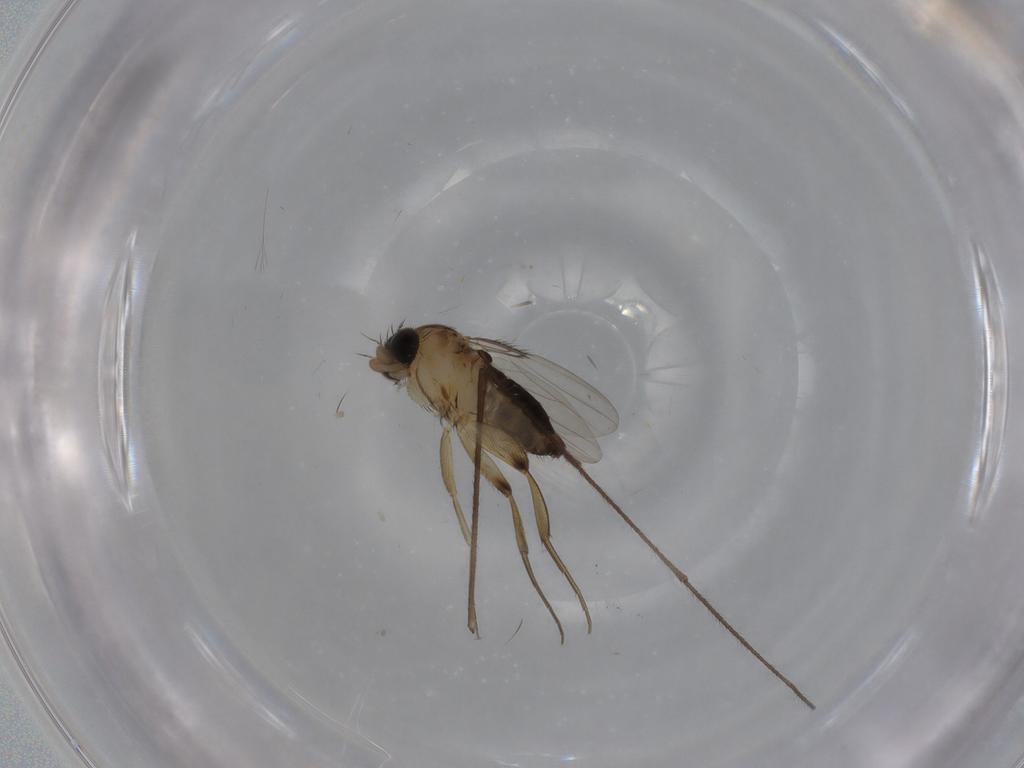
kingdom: Animalia
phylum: Arthropoda
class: Insecta
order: Diptera
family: Phoridae
